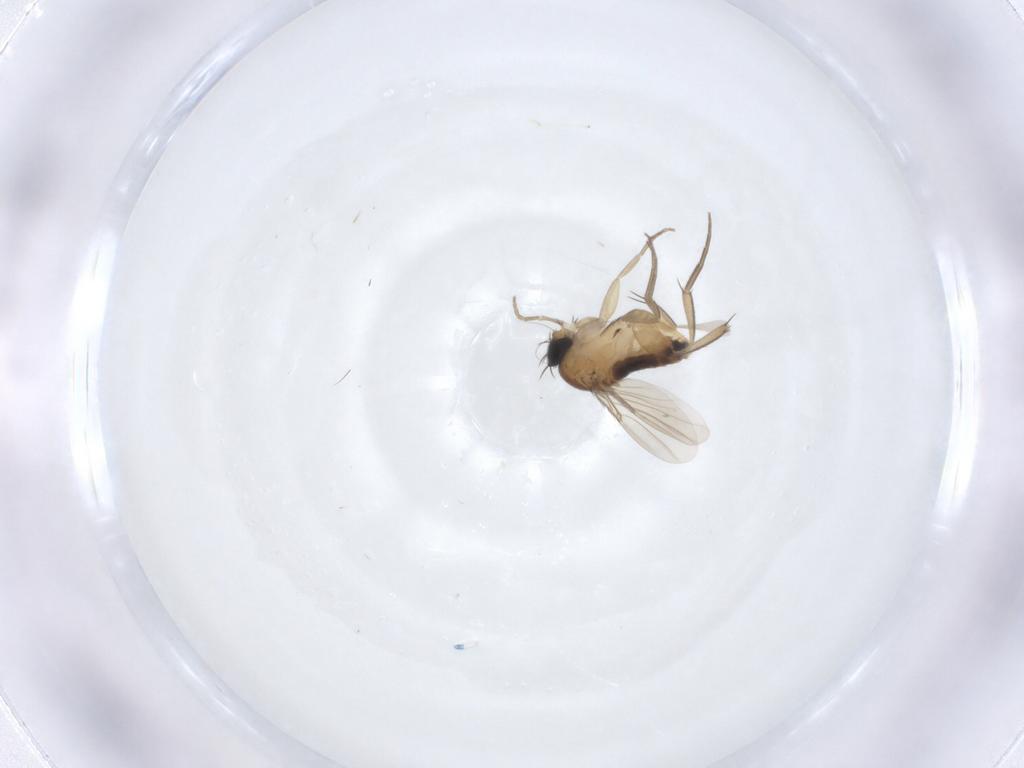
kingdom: Animalia
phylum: Arthropoda
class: Insecta
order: Diptera
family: Phoridae
